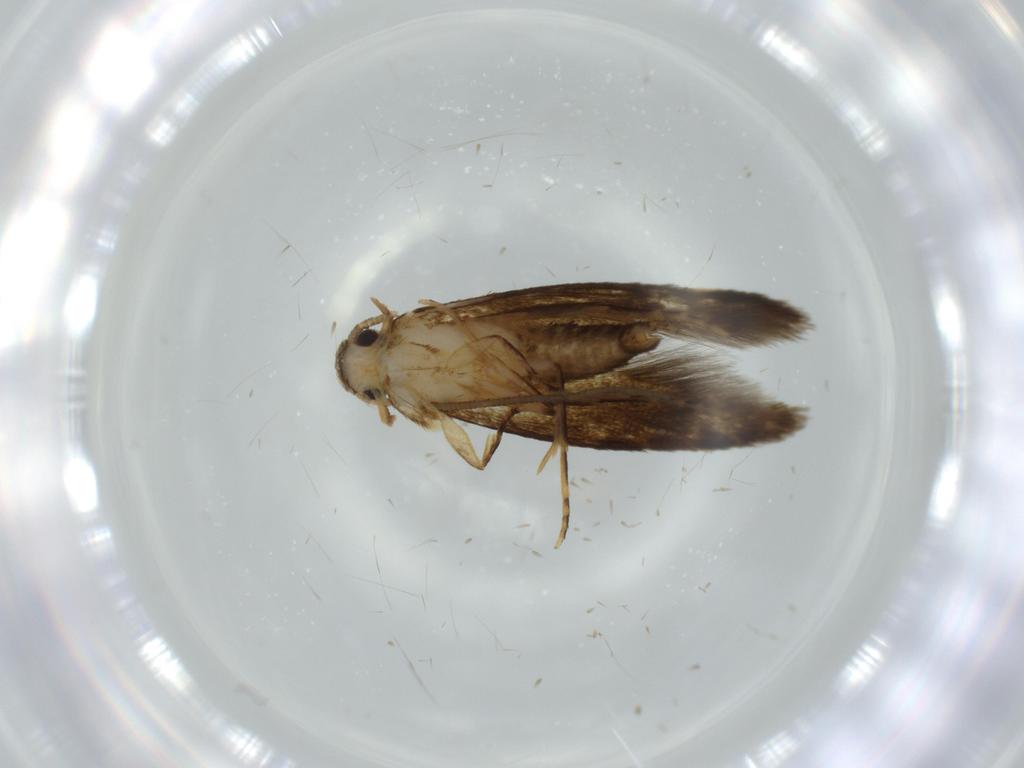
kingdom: Animalia
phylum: Arthropoda
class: Insecta
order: Lepidoptera
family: Tineidae
